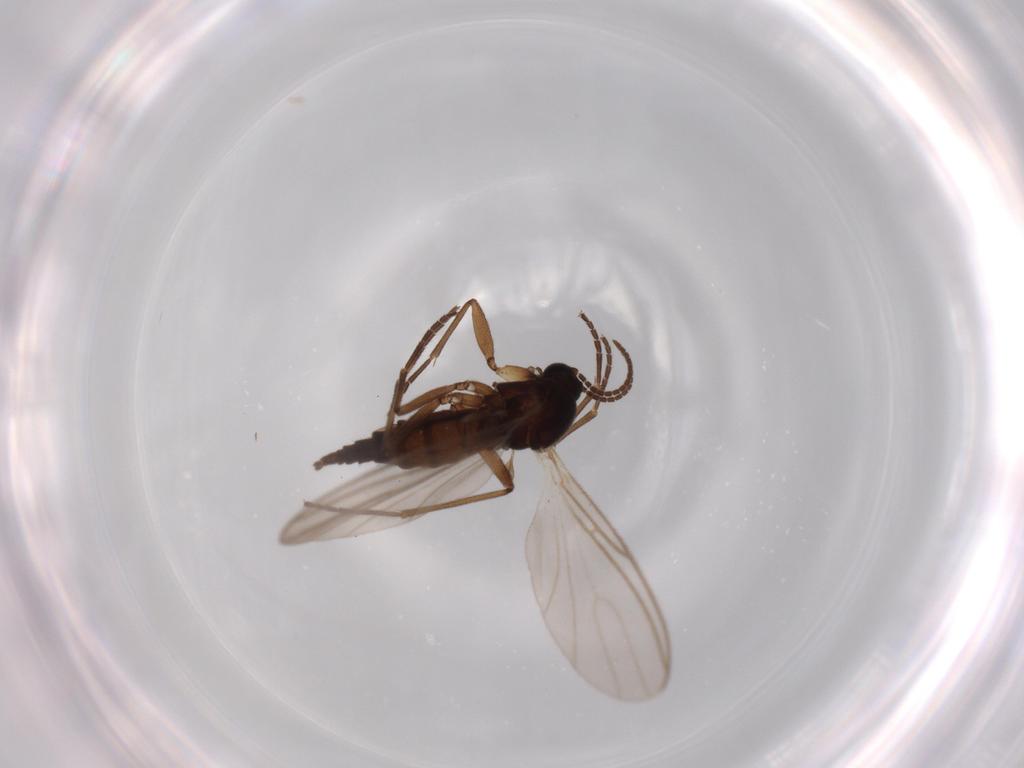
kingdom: Animalia
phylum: Arthropoda
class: Insecta
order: Diptera
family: Sciaridae
